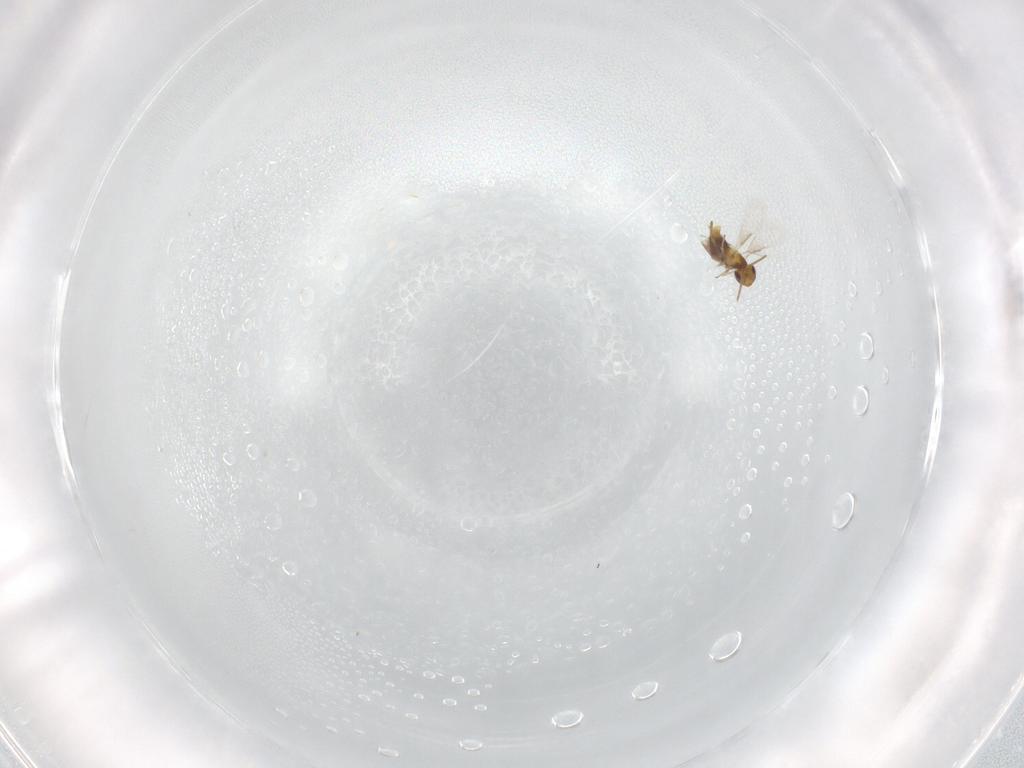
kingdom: Animalia
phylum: Arthropoda
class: Insecta
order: Hymenoptera
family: Aphelinidae
